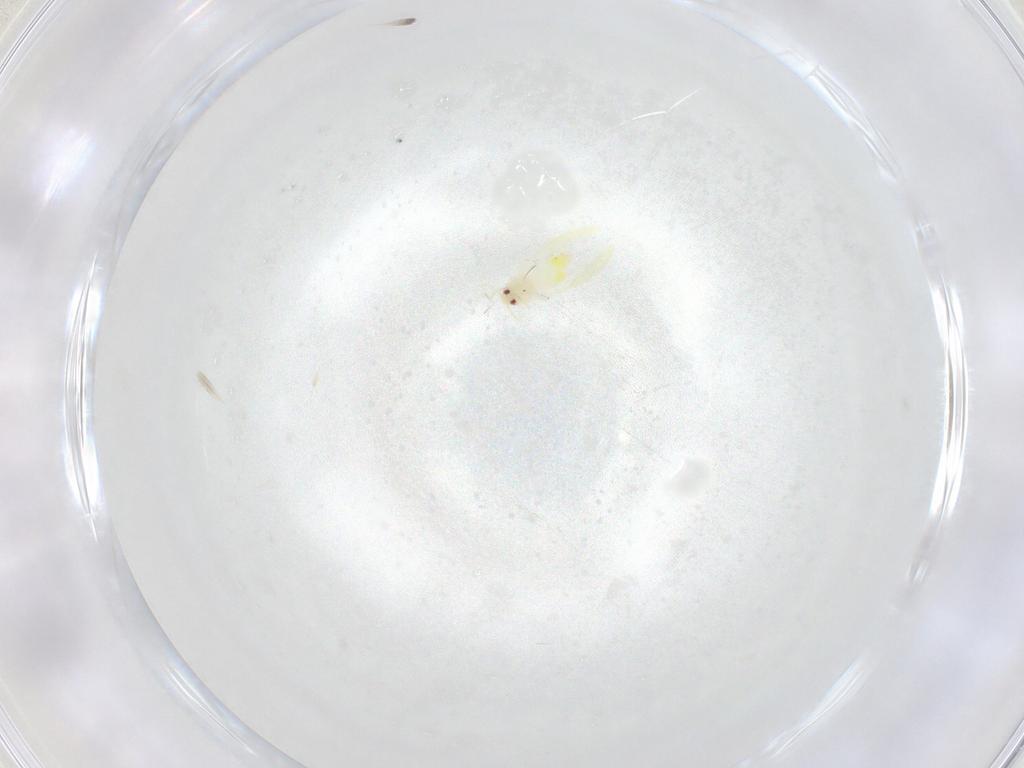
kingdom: Animalia
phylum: Arthropoda
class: Insecta
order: Hemiptera
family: Aleyrodidae
